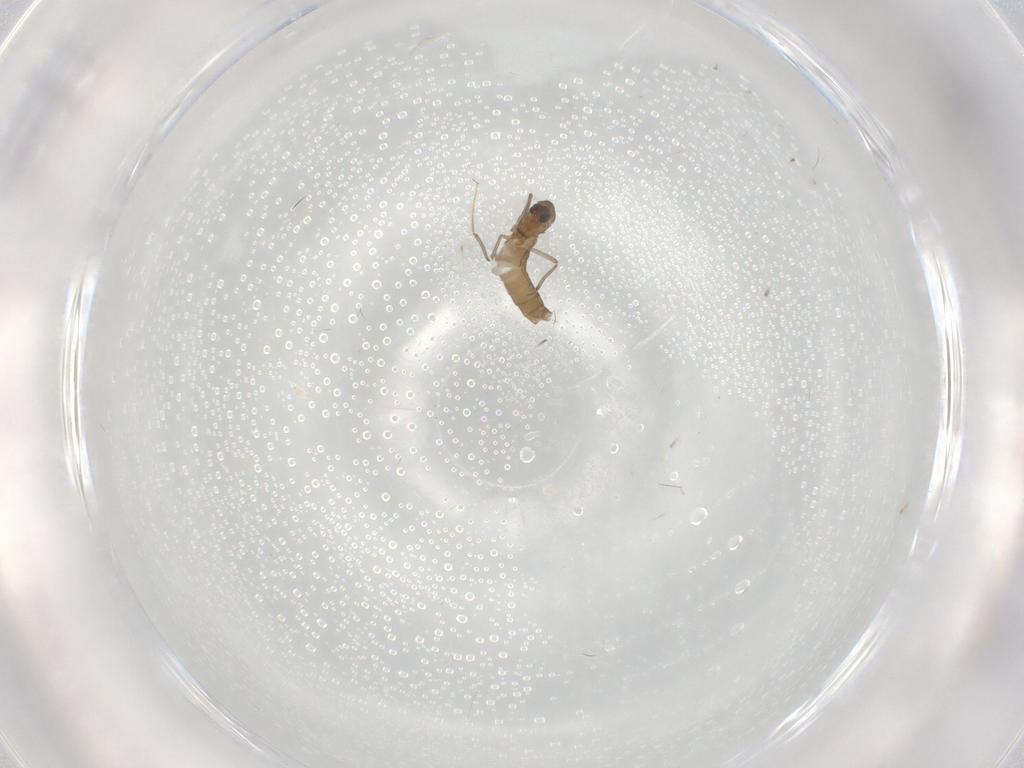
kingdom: Animalia
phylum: Arthropoda
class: Insecta
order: Diptera
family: Chironomidae
